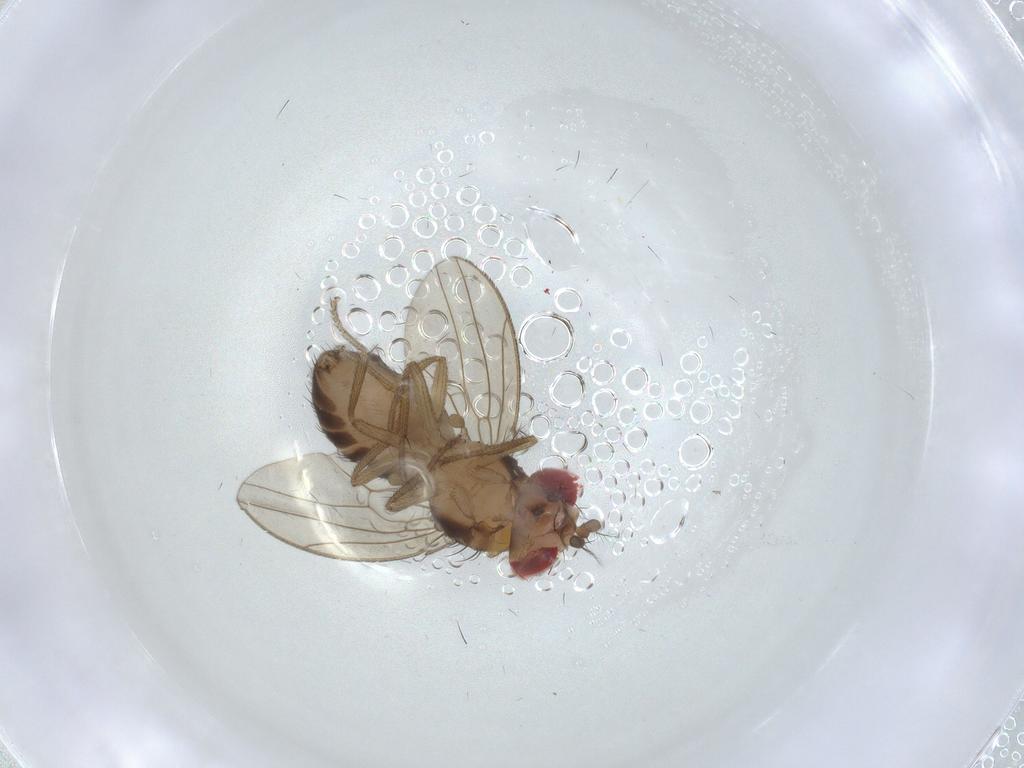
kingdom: Animalia
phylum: Arthropoda
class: Insecta
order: Diptera
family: Drosophilidae
